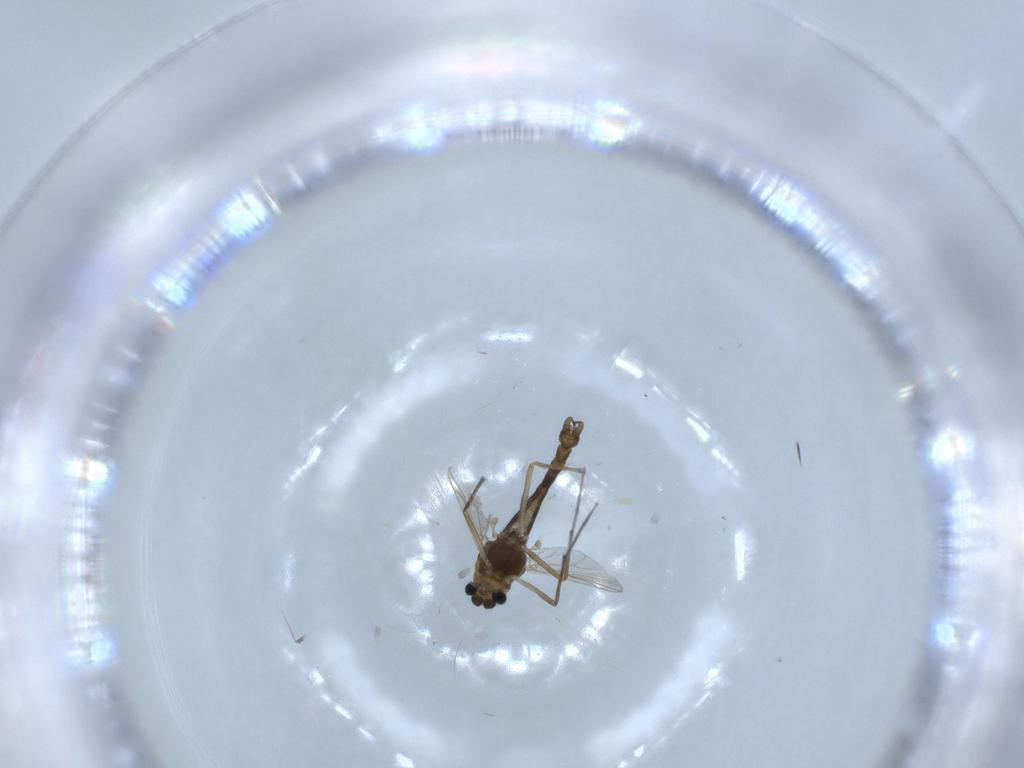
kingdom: Animalia
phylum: Arthropoda
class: Insecta
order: Diptera
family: Chironomidae
